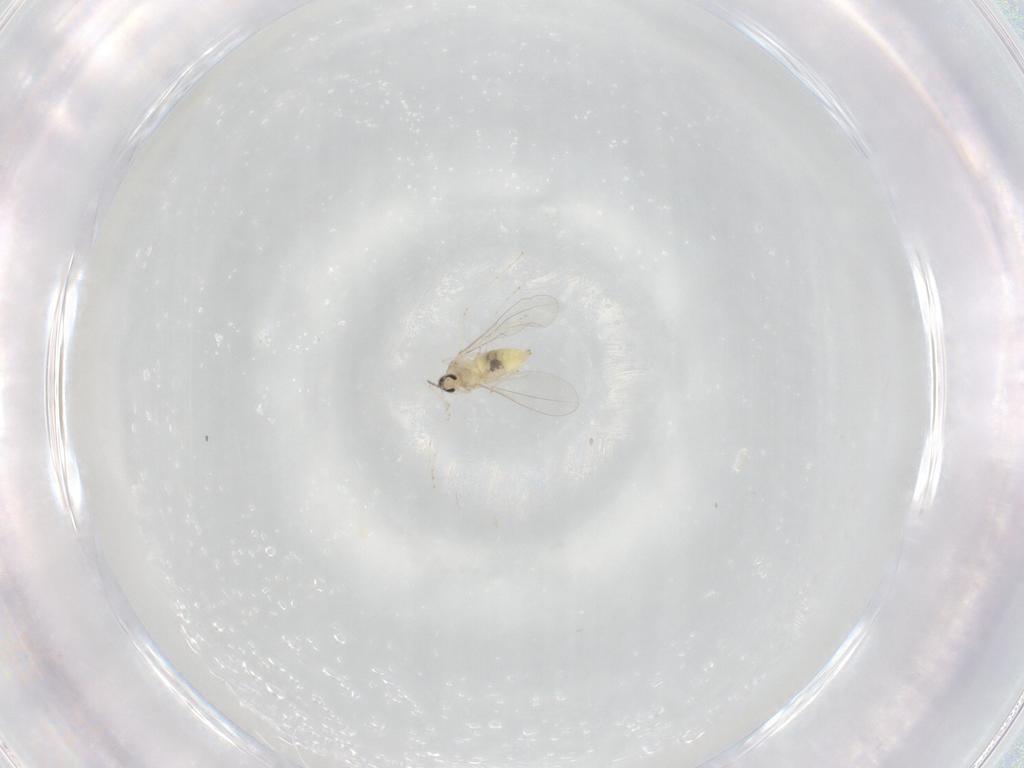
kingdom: Animalia
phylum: Arthropoda
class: Insecta
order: Diptera
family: Cecidomyiidae
